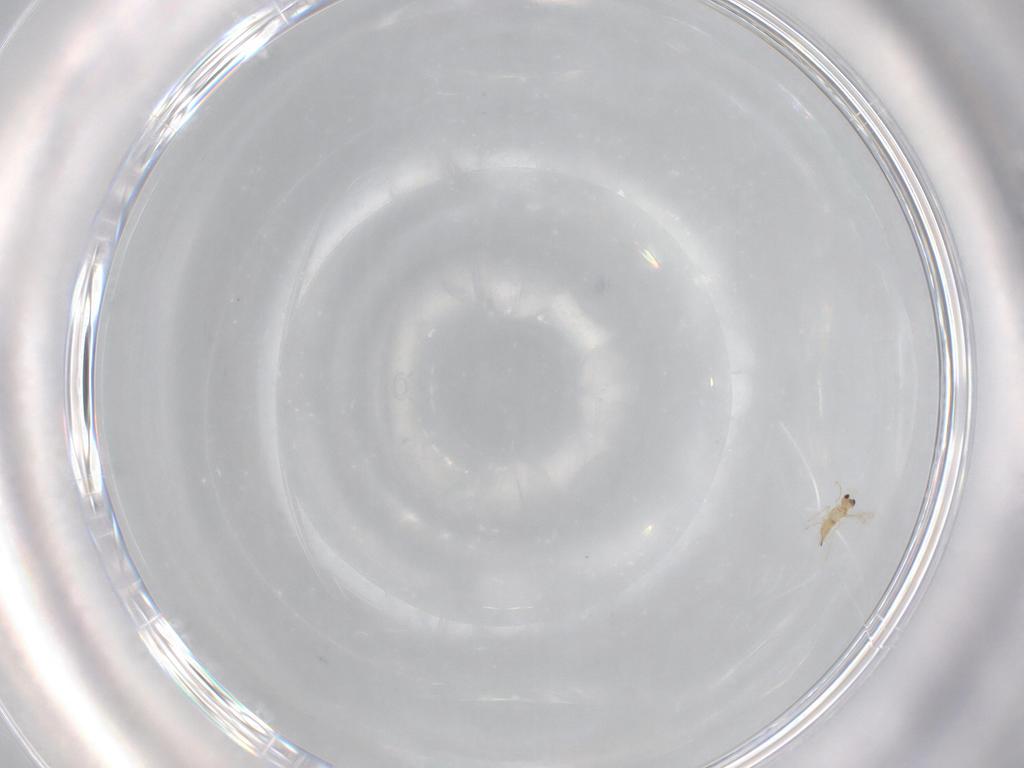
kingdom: Animalia
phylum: Arthropoda
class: Insecta
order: Hymenoptera
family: Mymaridae
